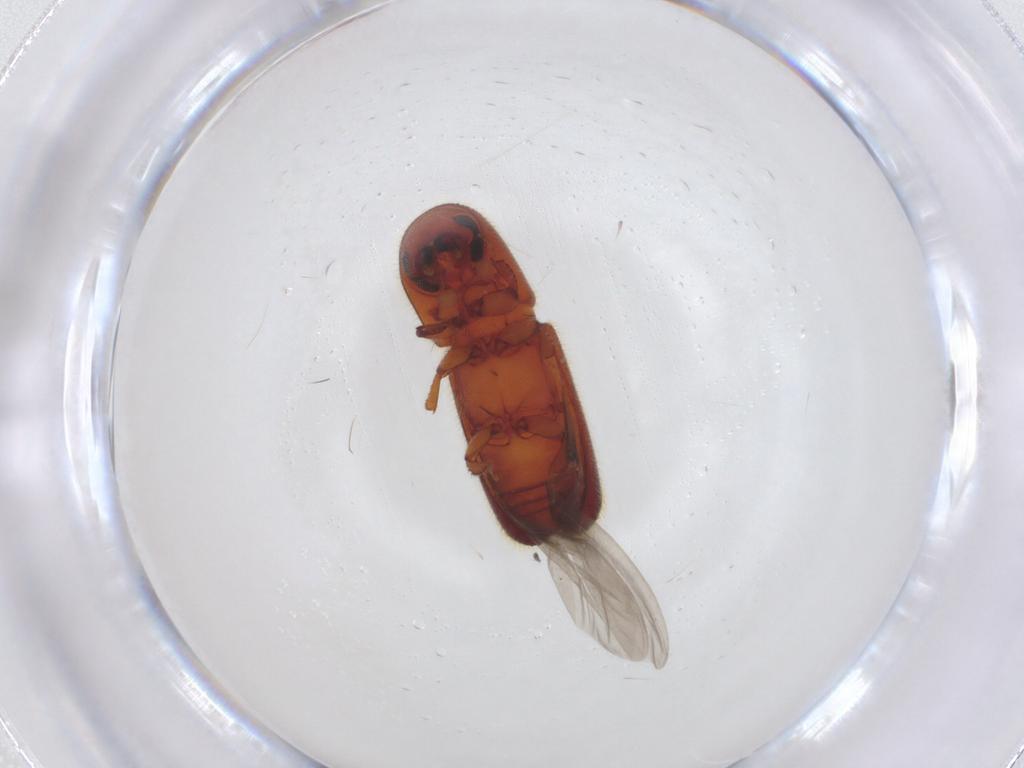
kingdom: Animalia
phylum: Arthropoda
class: Insecta
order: Coleoptera
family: Curculionidae
